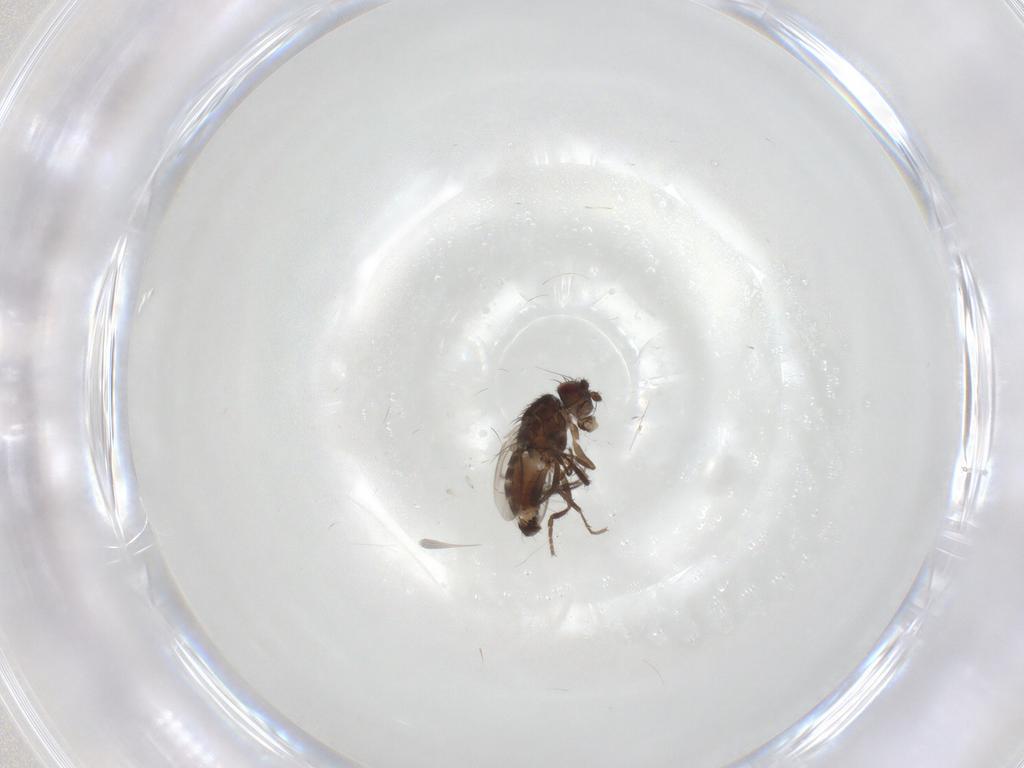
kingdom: Animalia
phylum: Arthropoda
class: Insecta
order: Diptera
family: Sphaeroceridae
